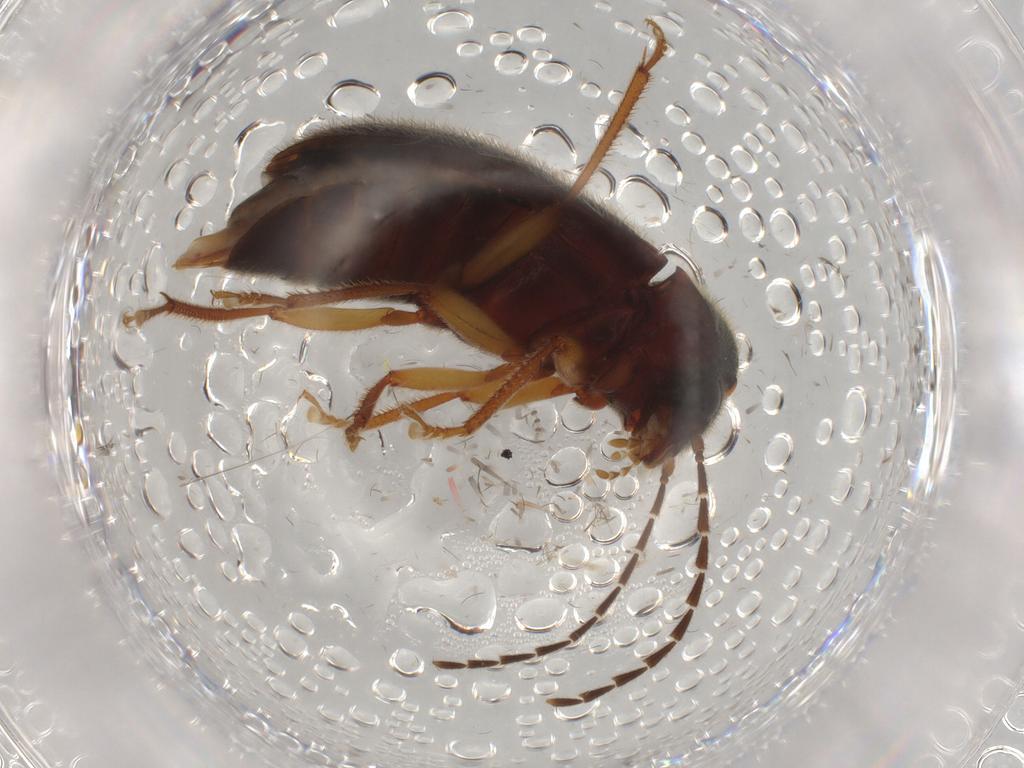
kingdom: Animalia
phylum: Arthropoda
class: Insecta
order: Coleoptera
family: Ptilodactylidae
